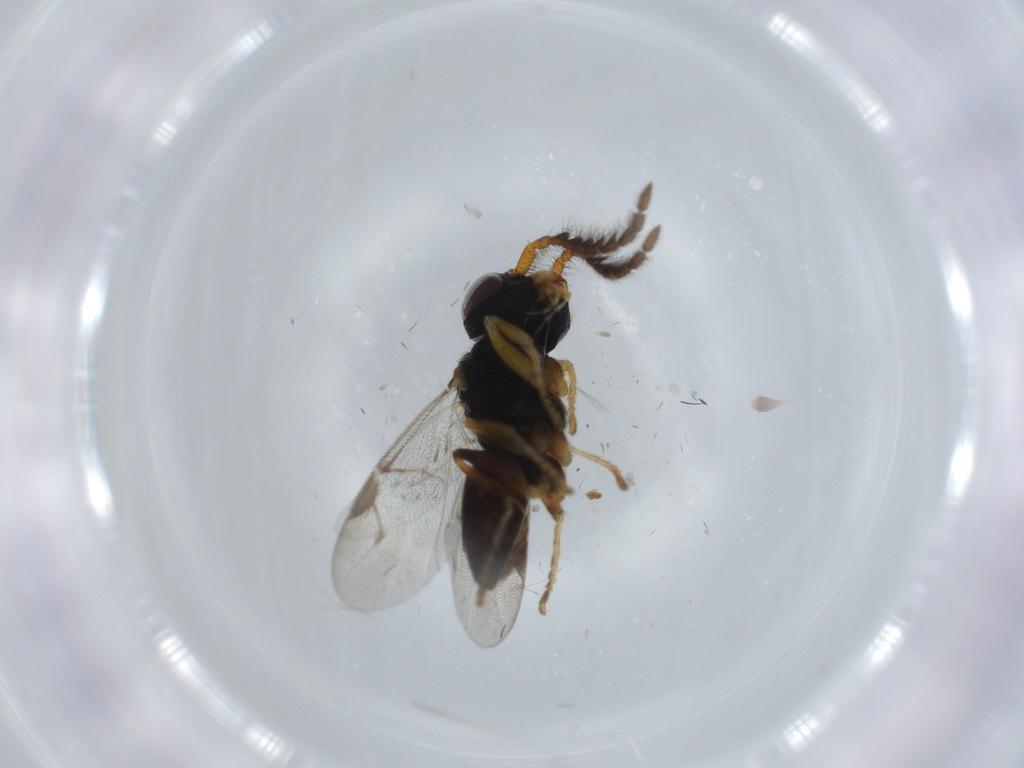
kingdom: Animalia
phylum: Arthropoda
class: Insecta
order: Hymenoptera
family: Dryinidae
